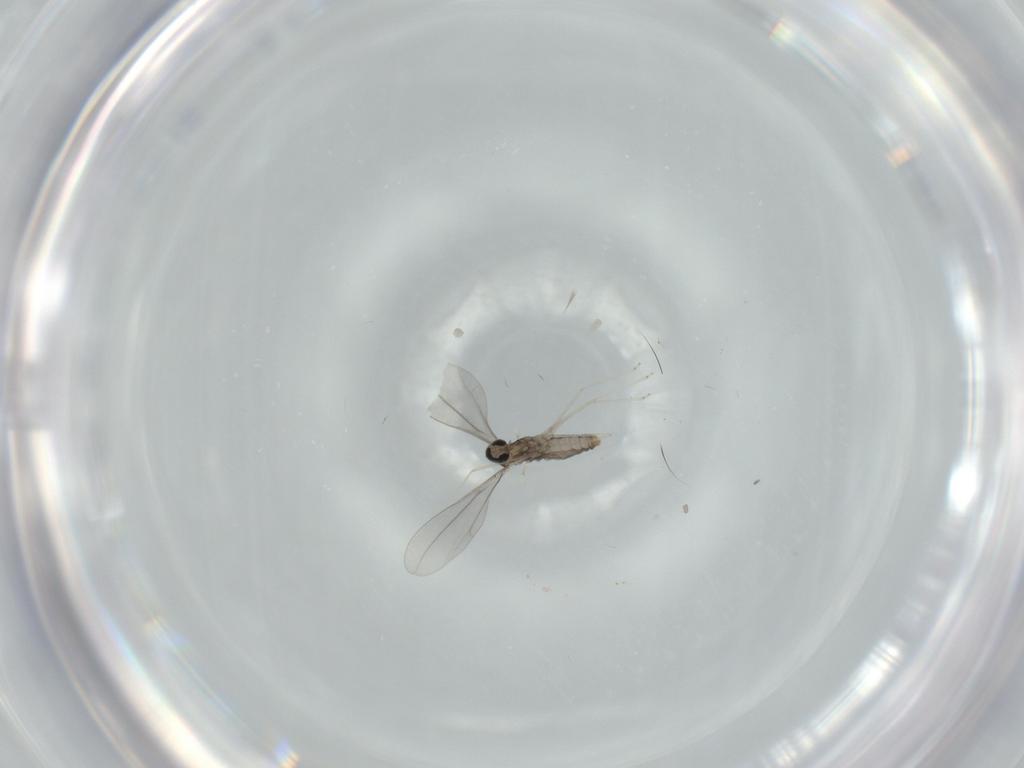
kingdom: Animalia
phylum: Arthropoda
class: Insecta
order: Diptera
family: Cecidomyiidae
